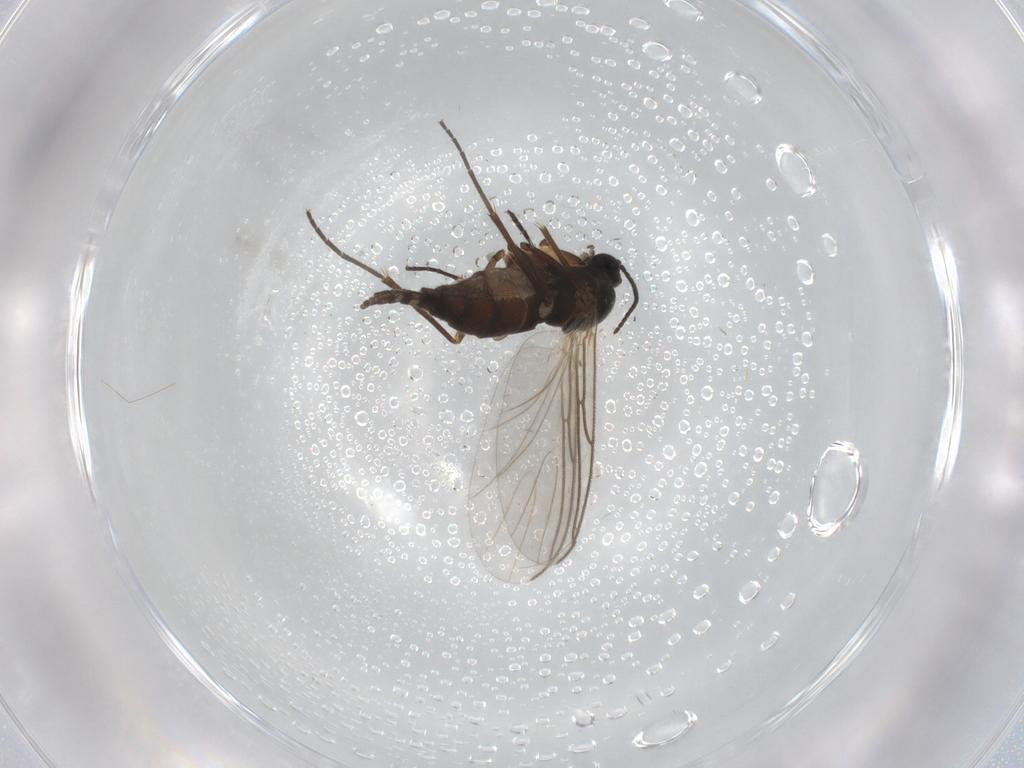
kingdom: Animalia
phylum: Arthropoda
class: Insecta
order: Diptera
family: Sciaridae
